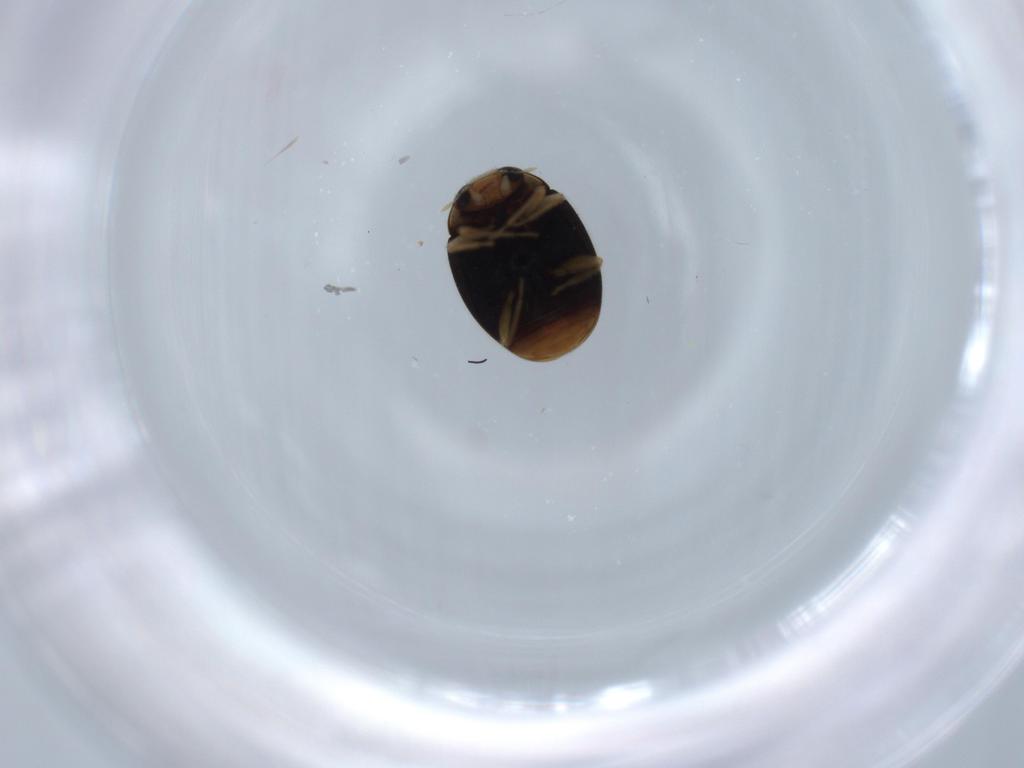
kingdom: Animalia
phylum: Arthropoda
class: Insecta
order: Coleoptera
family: Coccinellidae
